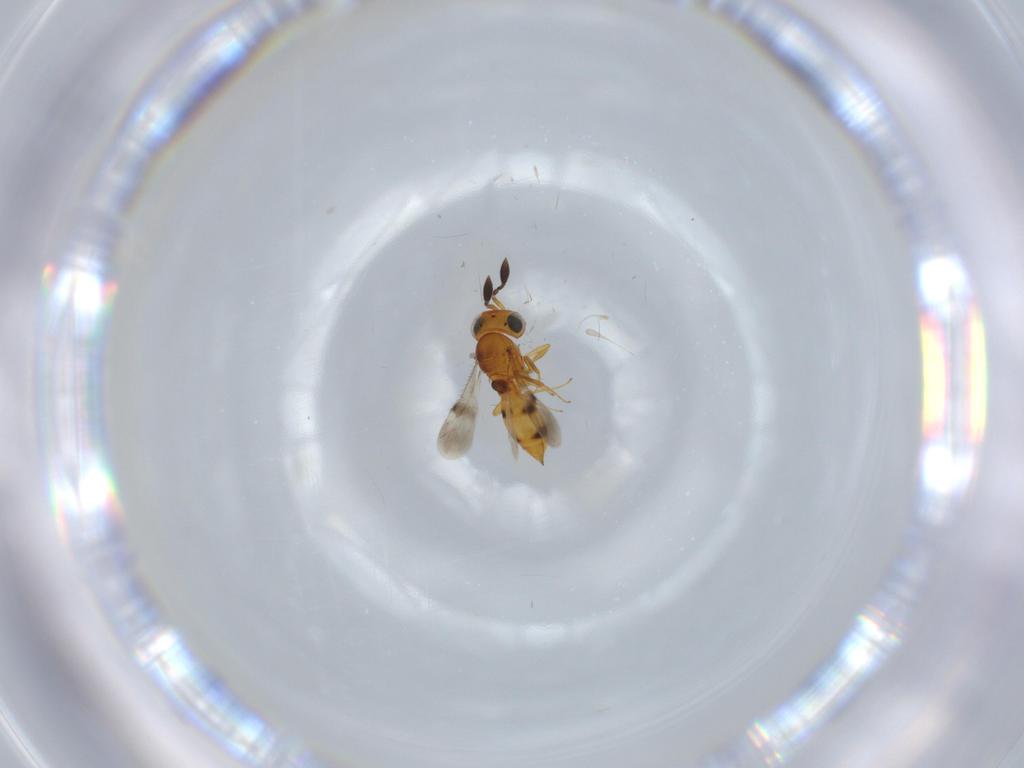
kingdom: Animalia
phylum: Arthropoda
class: Insecta
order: Hymenoptera
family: Scelionidae
